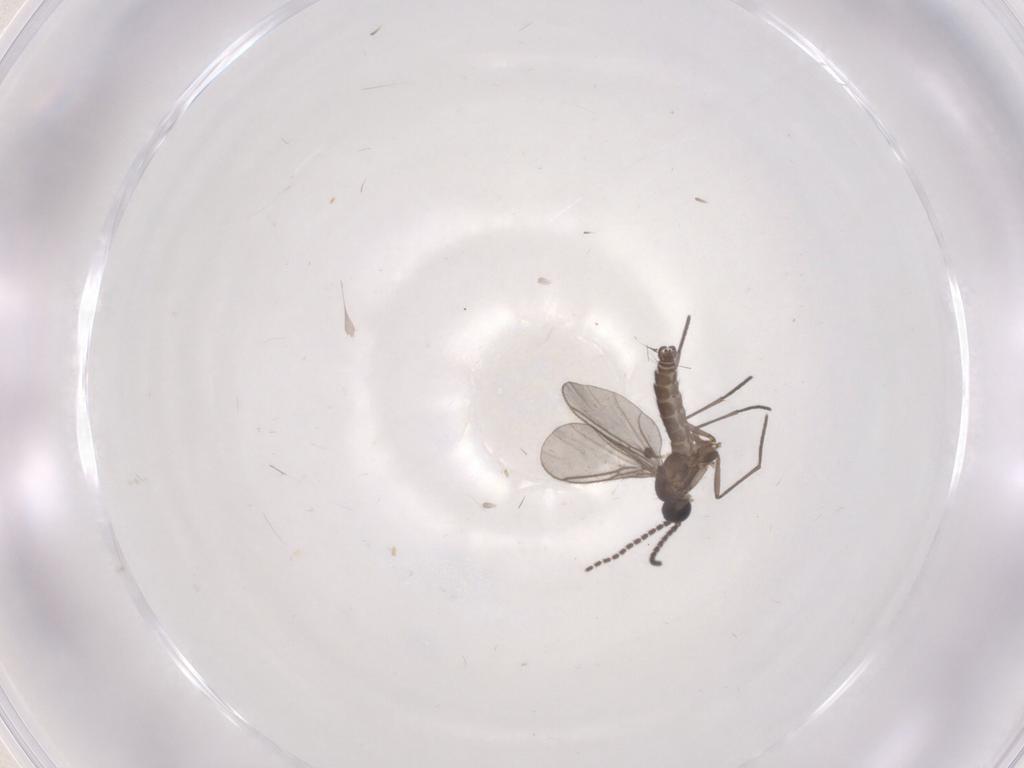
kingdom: Animalia
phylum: Arthropoda
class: Insecta
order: Diptera
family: Sciaridae
